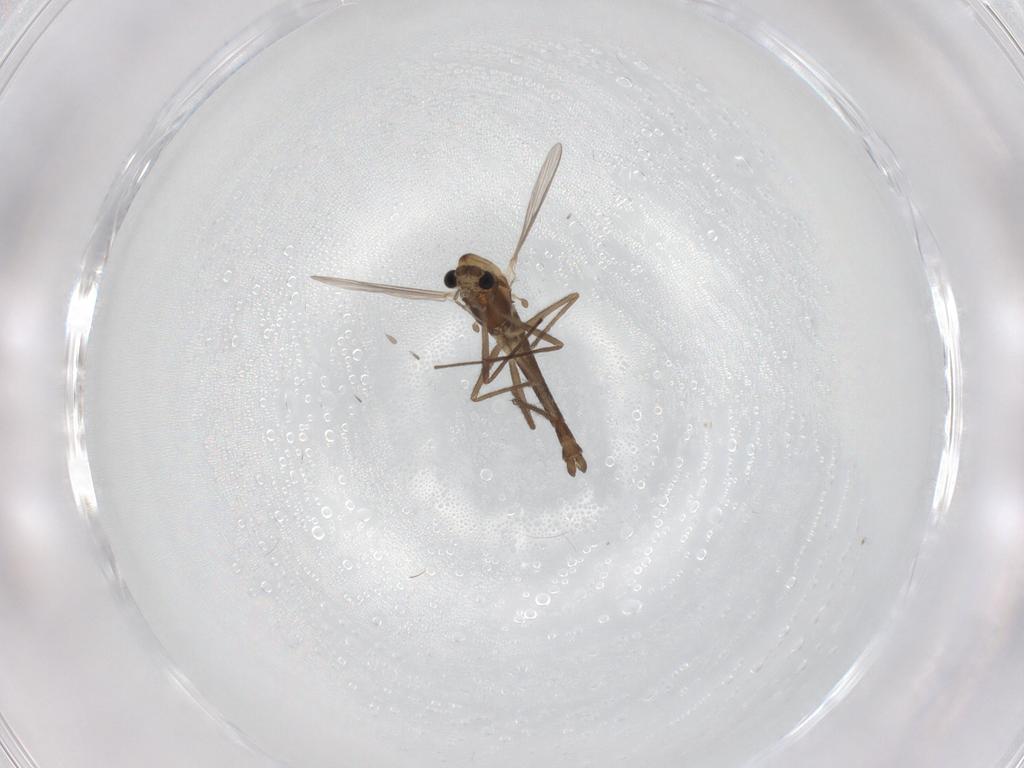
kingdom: Animalia
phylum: Arthropoda
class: Insecta
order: Diptera
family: Chironomidae
